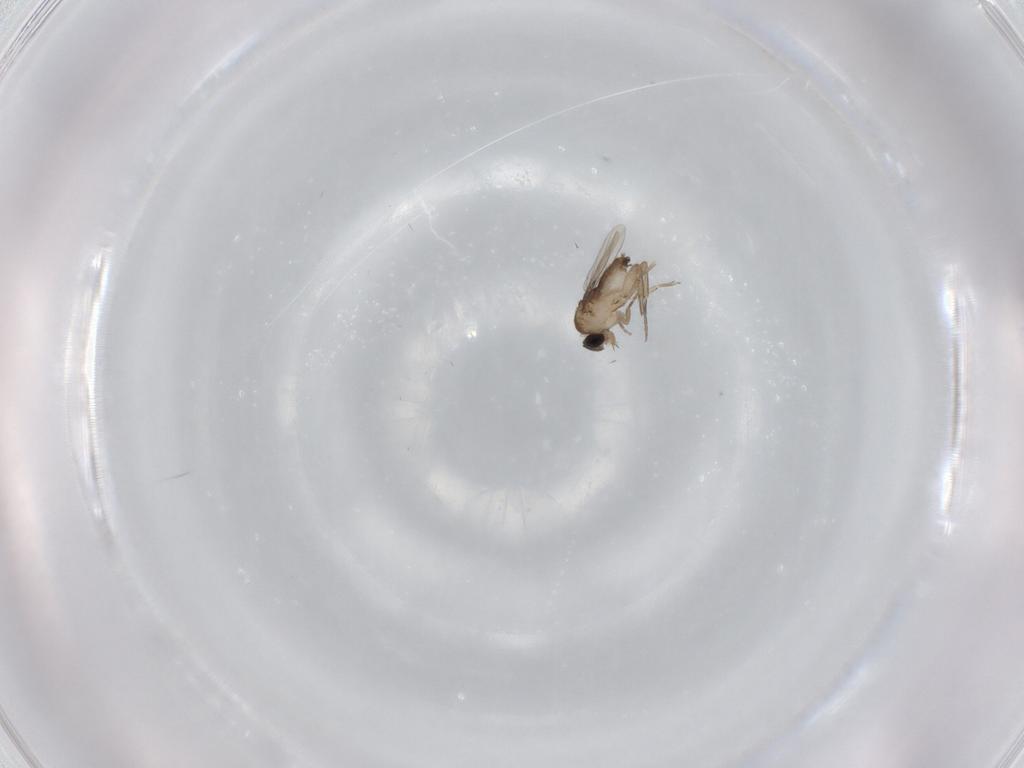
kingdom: Animalia
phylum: Arthropoda
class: Insecta
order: Diptera
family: Phoridae
